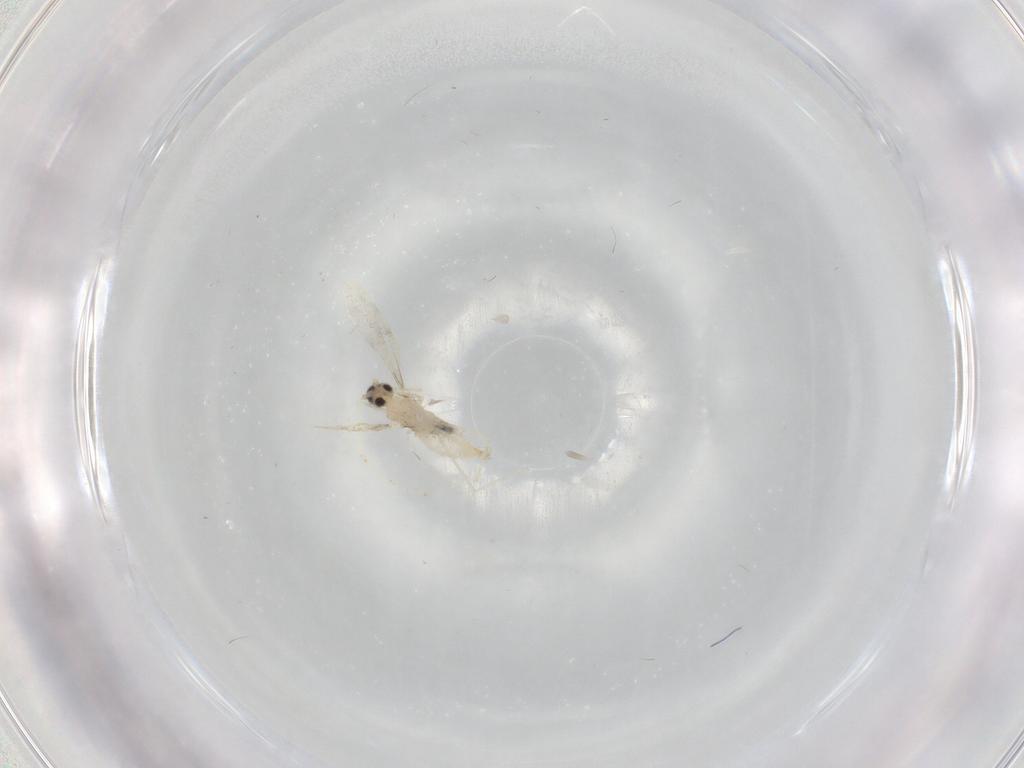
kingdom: Animalia
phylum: Arthropoda
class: Insecta
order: Diptera
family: Cecidomyiidae
